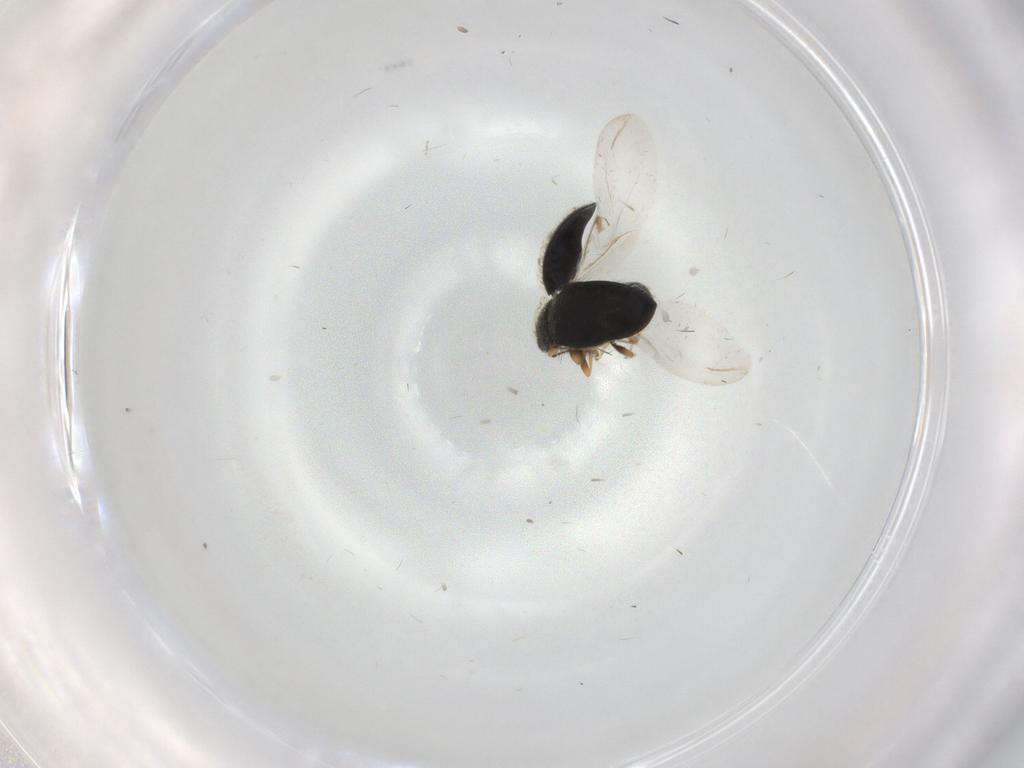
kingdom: Animalia
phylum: Arthropoda
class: Insecta
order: Coleoptera
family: Coccinellidae
